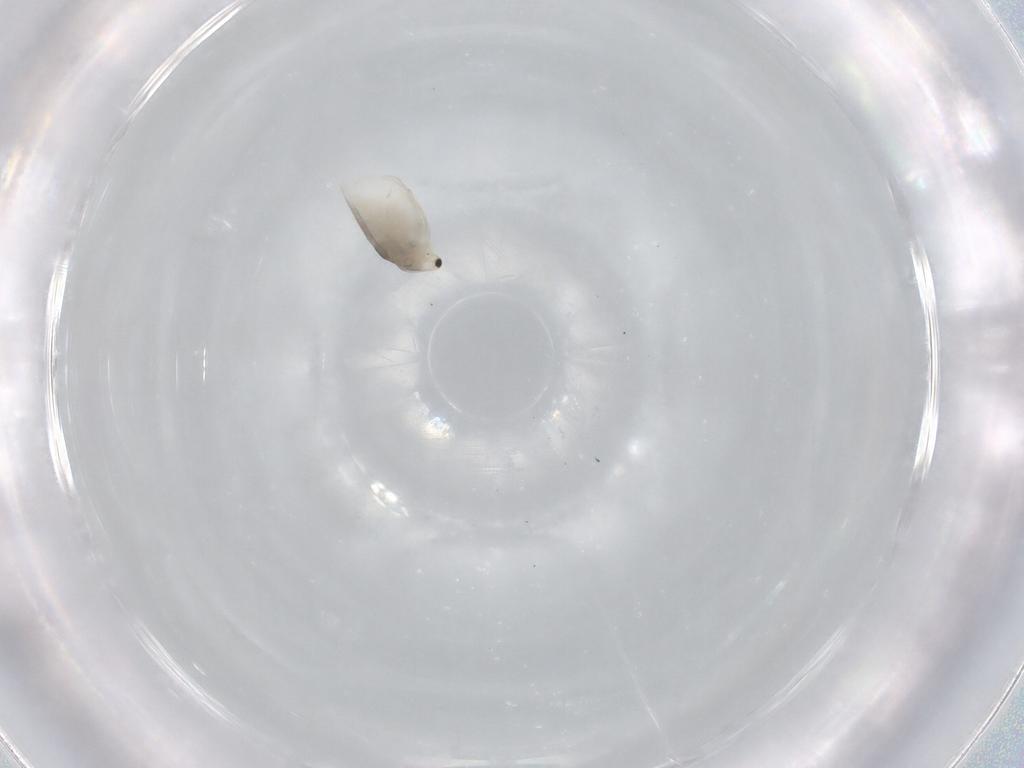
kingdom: Animalia
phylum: Arthropoda
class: Branchiopoda
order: Diplostraca
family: Daphniidae
